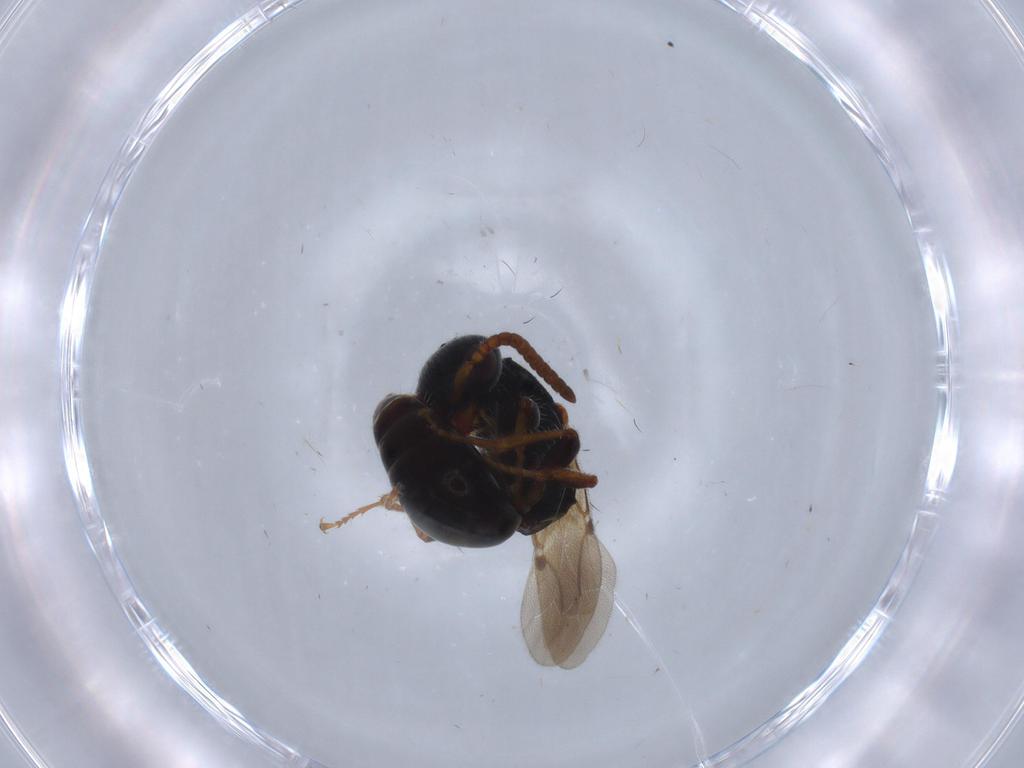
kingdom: Animalia
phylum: Arthropoda
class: Insecta
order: Hymenoptera
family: Bethylidae
